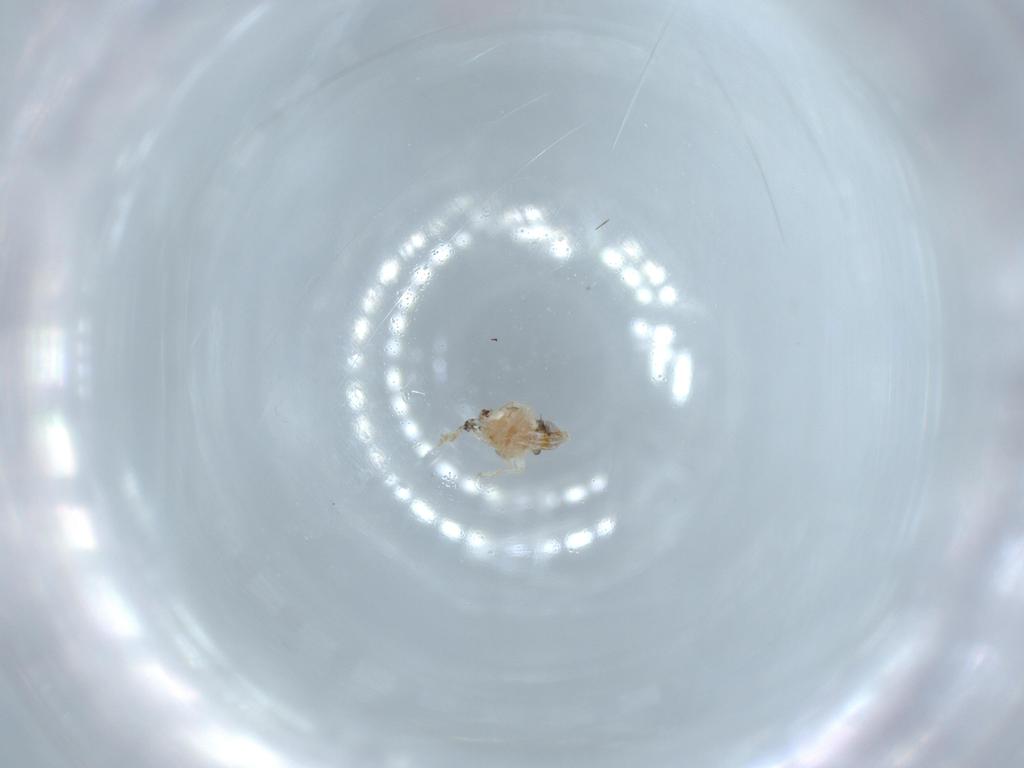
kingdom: Animalia
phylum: Arthropoda
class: Insecta
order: Hemiptera
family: Nogodinidae
